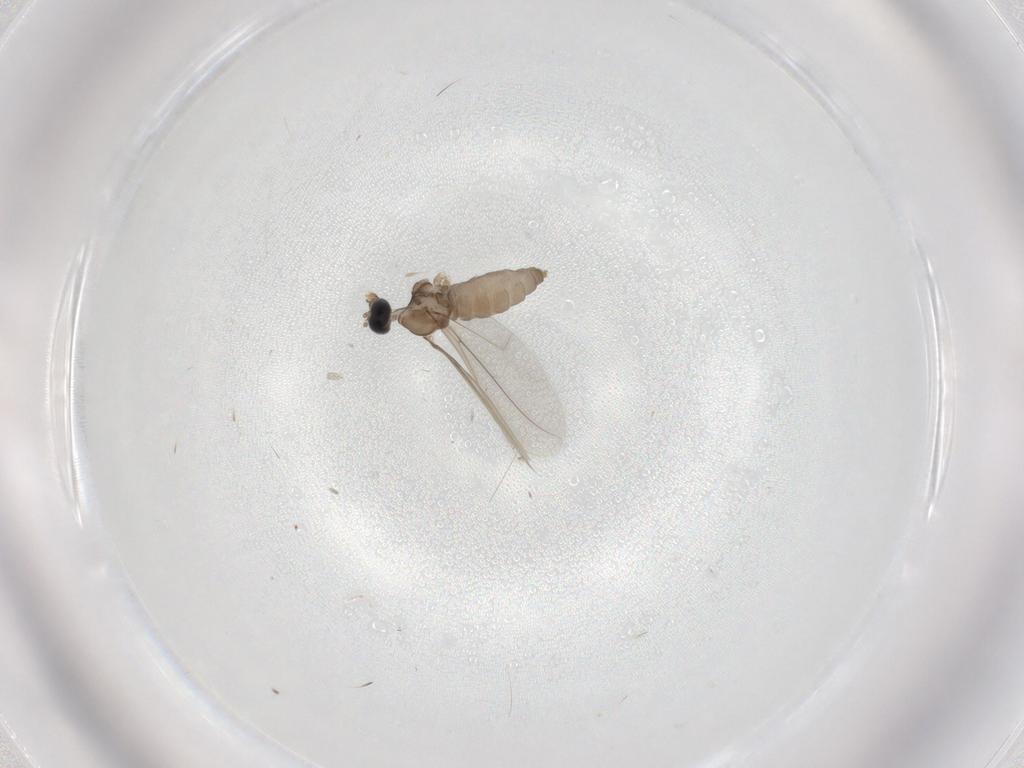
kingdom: Animalia
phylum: Arthropoda
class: Insecta
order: Diptera
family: Cecidomyiidae
